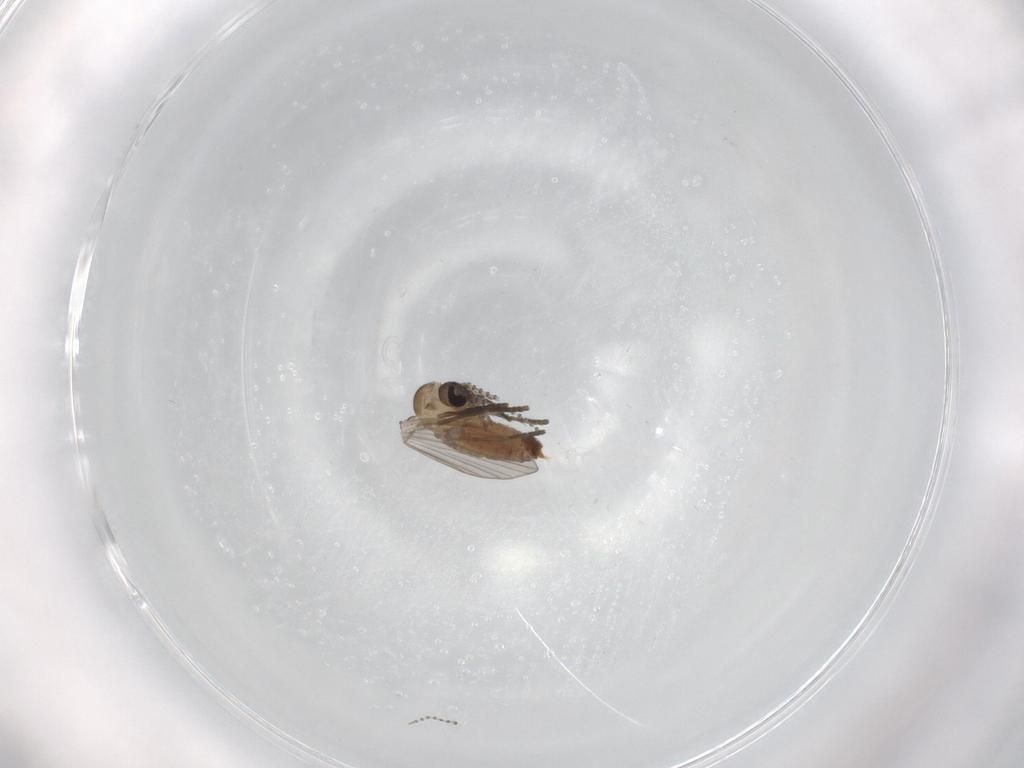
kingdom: Animalia
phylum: Arthropoda
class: Insecta
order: Diptera
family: Psychodidae
